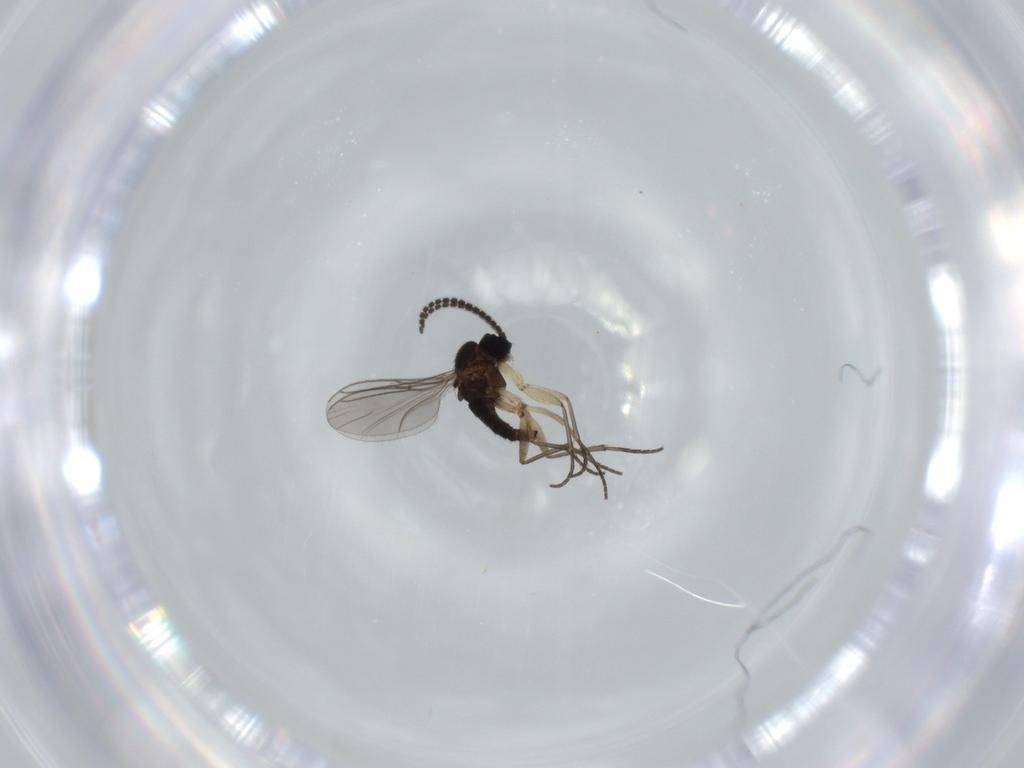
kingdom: Animalia
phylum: Arthropoda
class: Insecta
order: Diptera
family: Sciaridae
